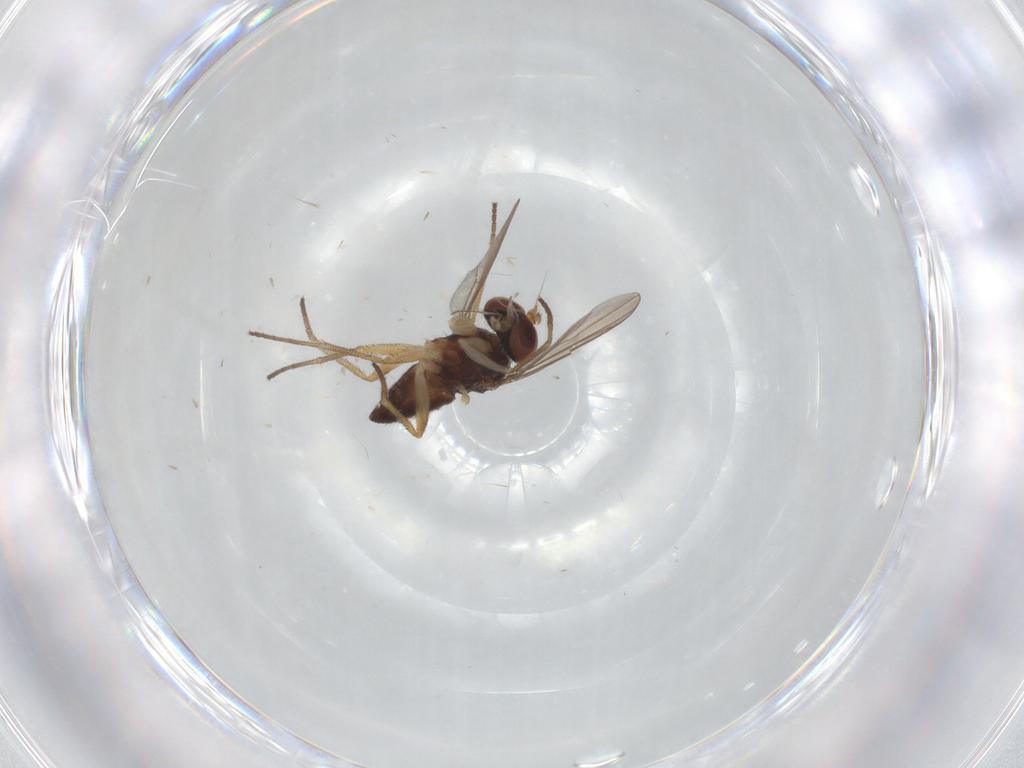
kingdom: Animalia
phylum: Arthropoda
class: Insecta
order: Diptera
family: Dolichopodidae
